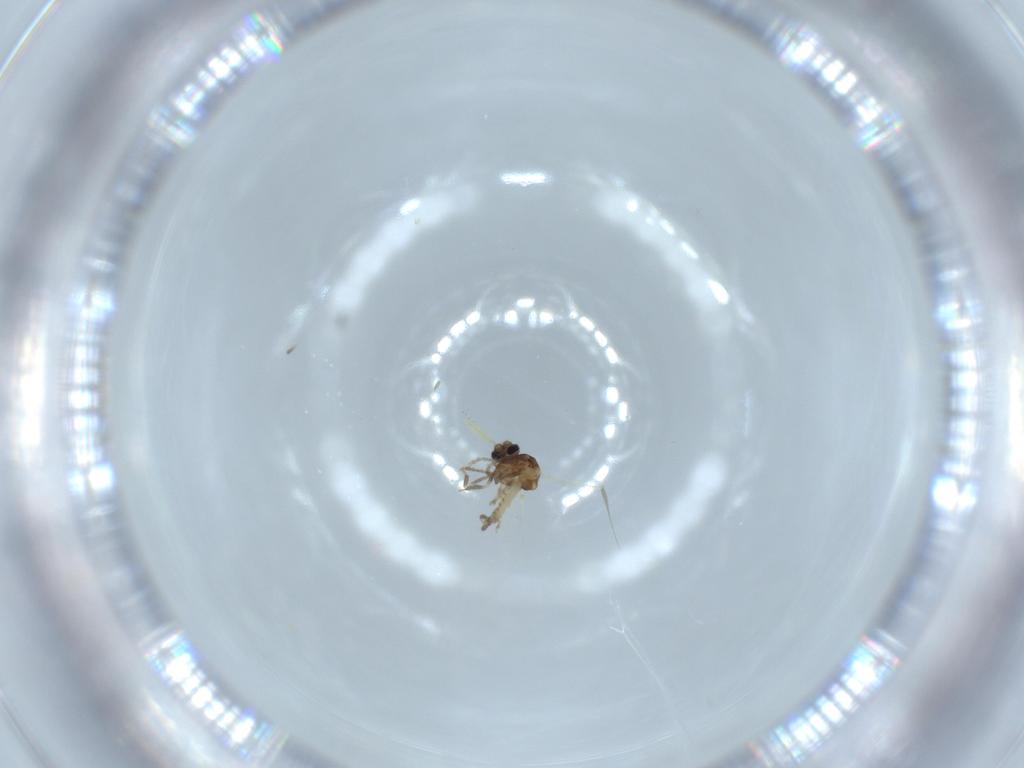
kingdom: Animalia
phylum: Arthropoda
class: Insecta
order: Diptera
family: Ceratopogonidae
